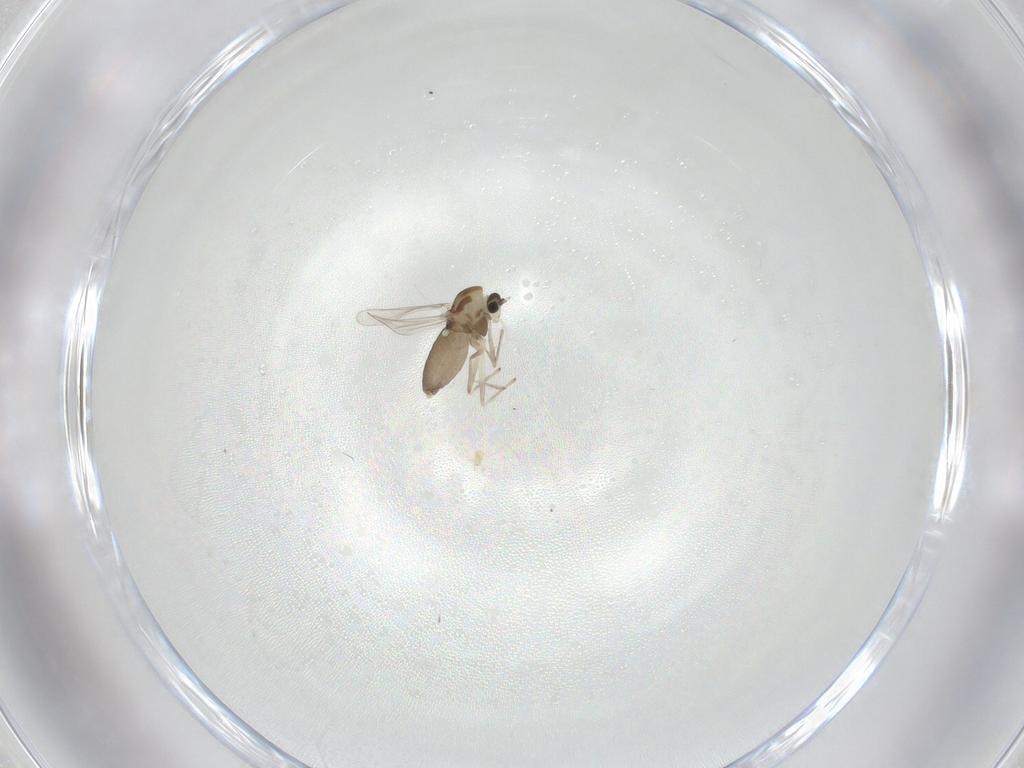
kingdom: Animalia
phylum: Arthropoda
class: Insecta
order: Diptera
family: Chironomidae
